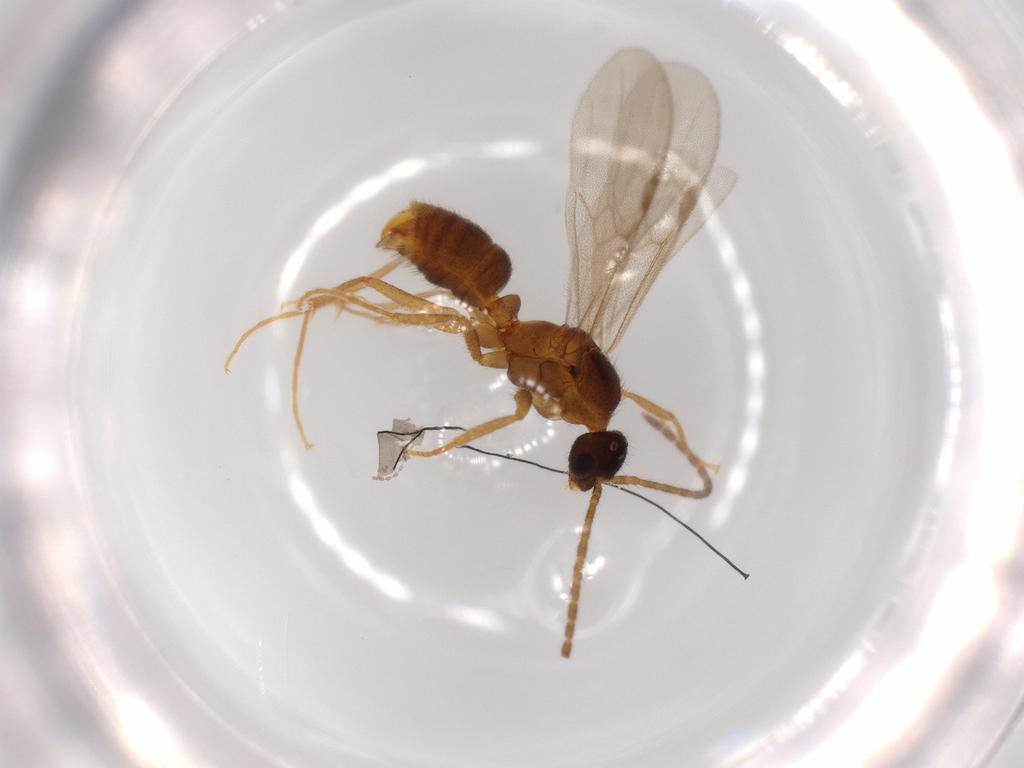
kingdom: Animalia
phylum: Arthropoda
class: Insecta
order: Hymenoptera
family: Formicidae
